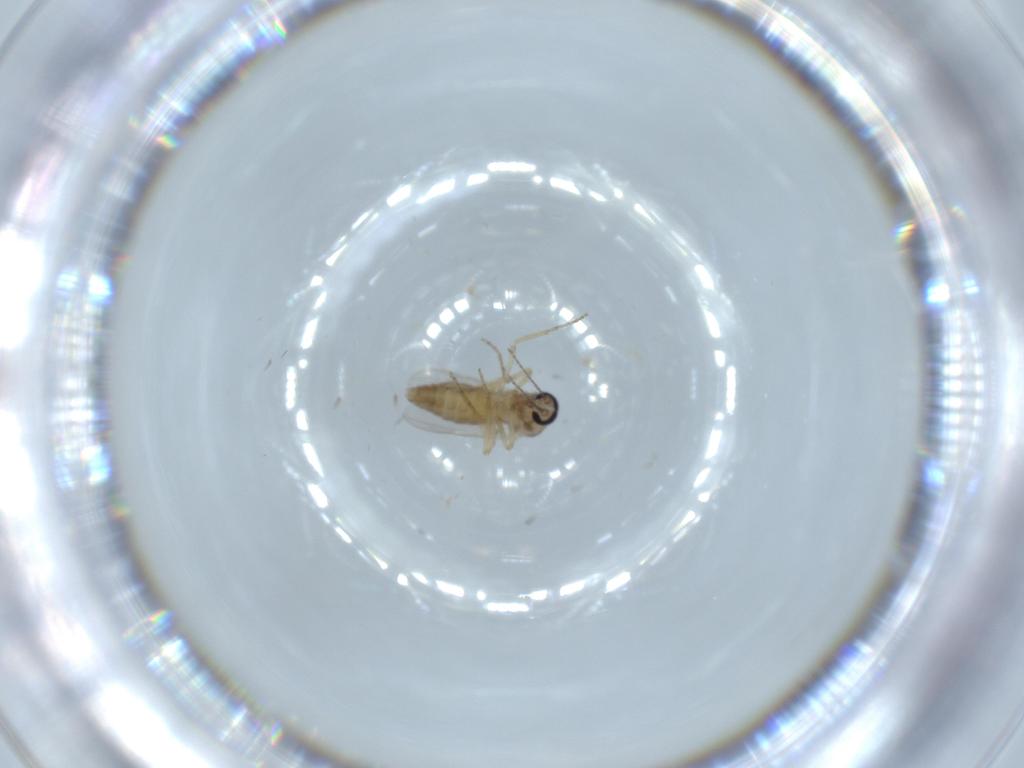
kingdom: Animalia
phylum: Arthropoda
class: Insecta
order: Diptera
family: Ceratopogonidae
